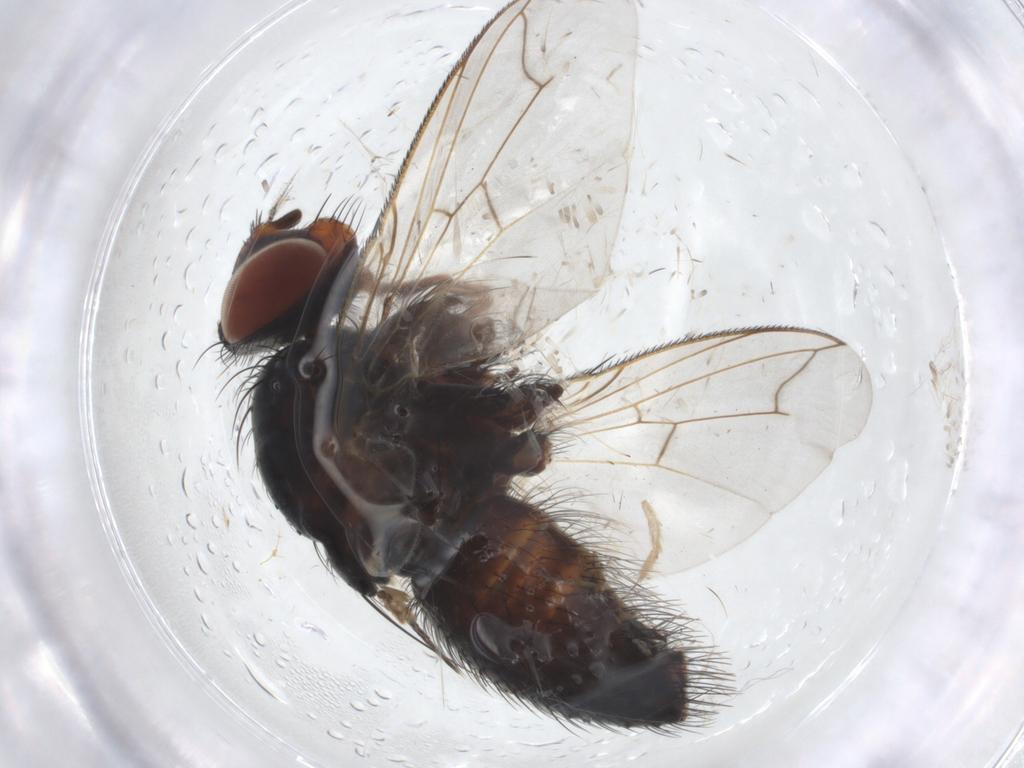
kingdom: Animalia
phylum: Arthropoda
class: Insecta
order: Diptera
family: Tachinidae
